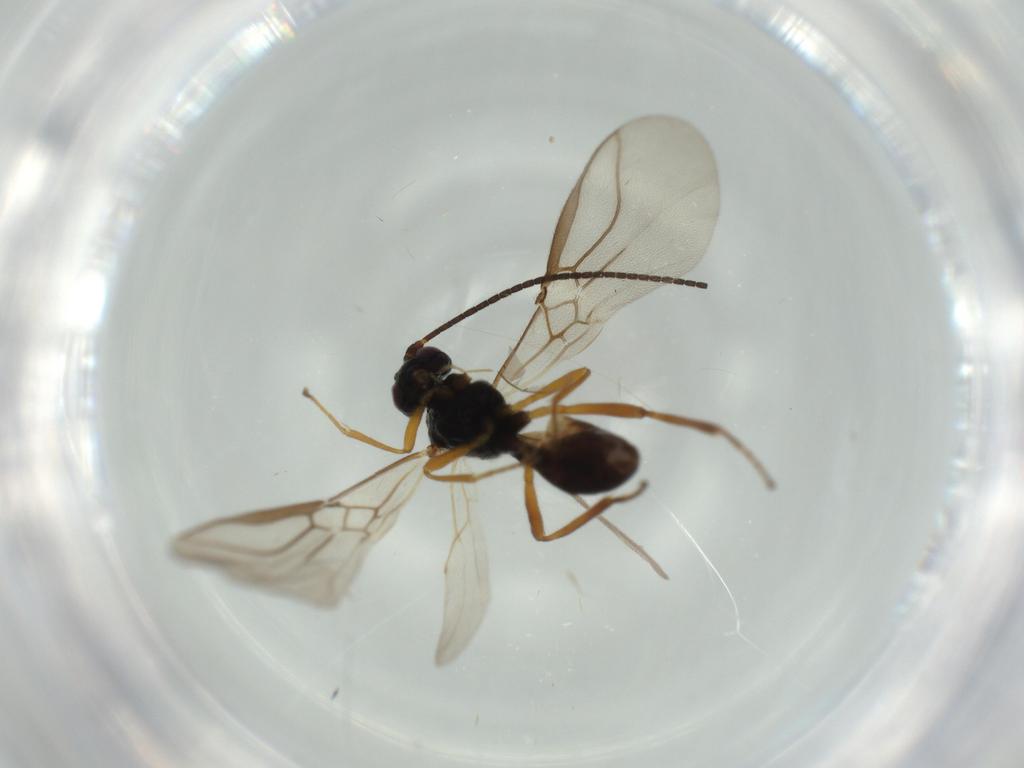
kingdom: Animalia
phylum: Arthropoda
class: Insecta
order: Hymenoptera
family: Braconidae
